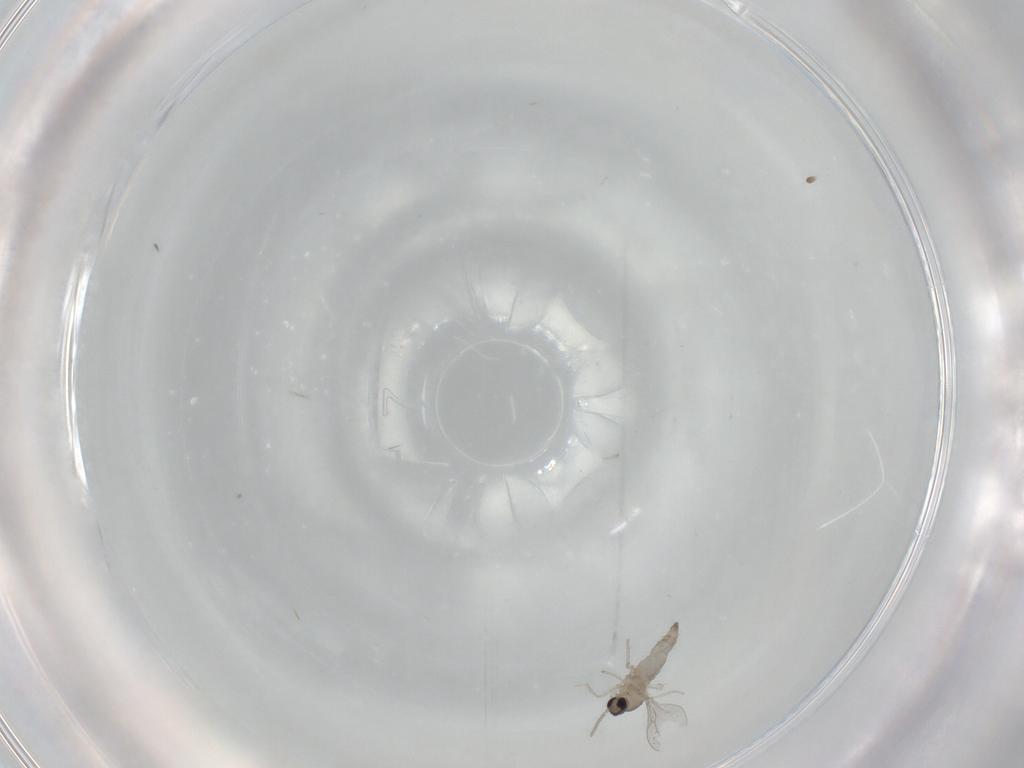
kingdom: Animalia
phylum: Arthropoda
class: Insecta
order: Diptera
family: Cecidomyiidae
